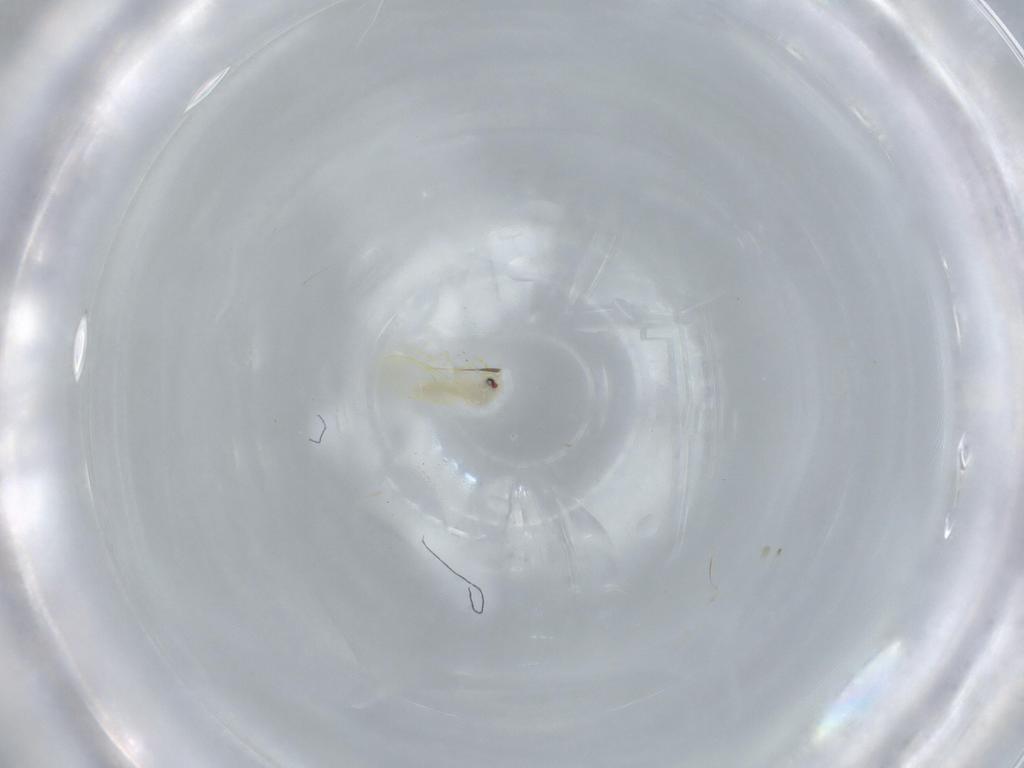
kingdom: Animalia
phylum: Arthropoda
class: Insecta
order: Hemiptera
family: Aleyrodidae
